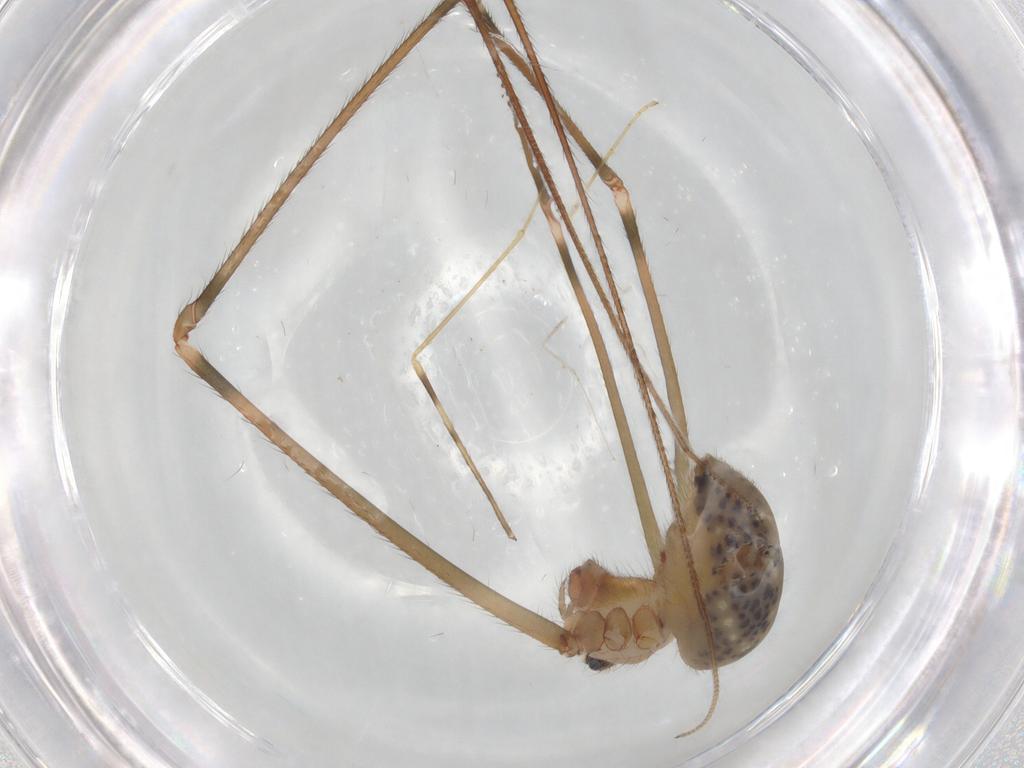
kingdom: Animalia
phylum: Arthropoda
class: Arachnida
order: Araneae
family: Pholcidae
